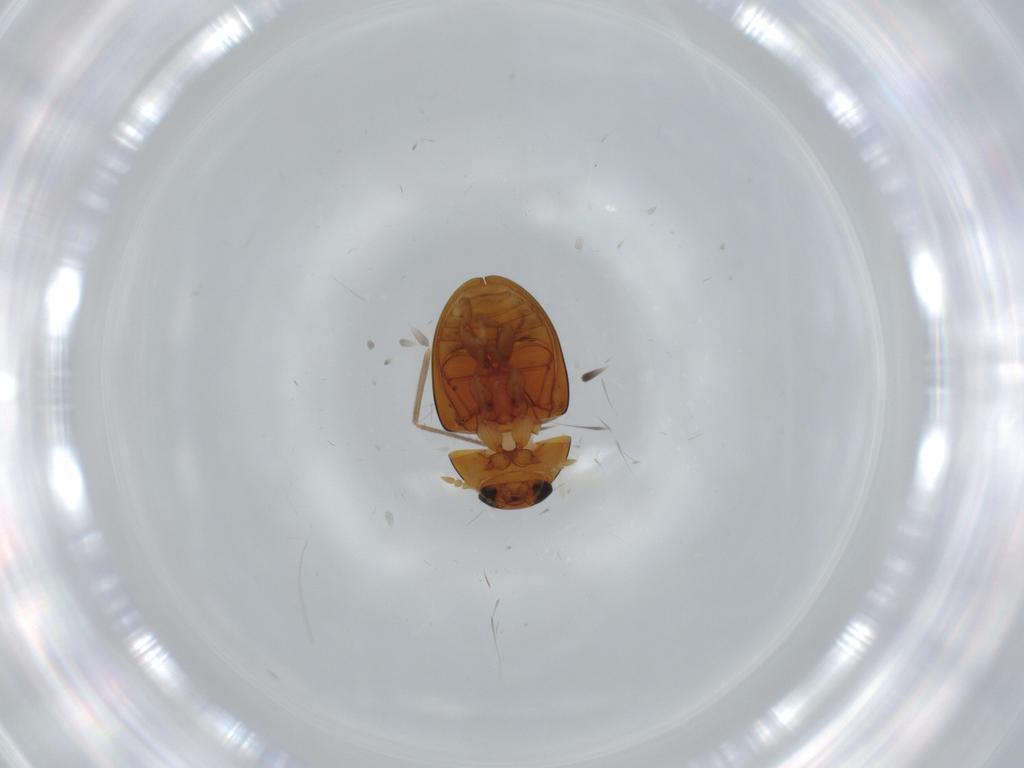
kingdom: Animalia
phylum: Arthropoda
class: Insecta
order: Coleoptera
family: Phalacridae
